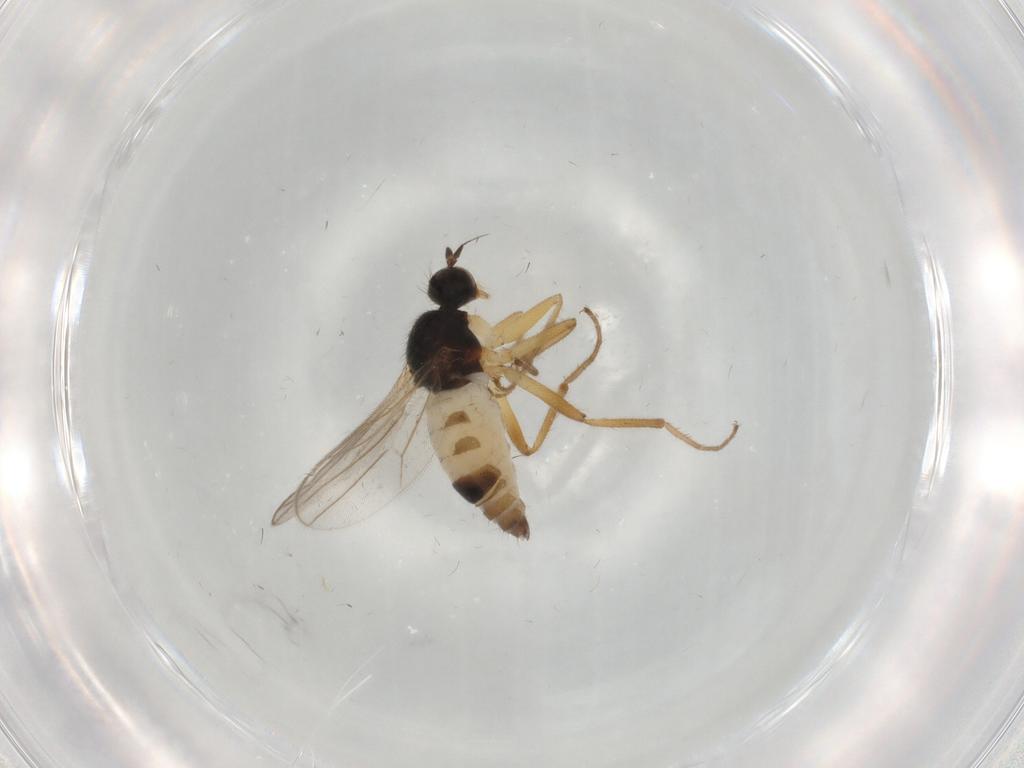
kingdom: Animalia
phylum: Arthropoda
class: Insecta
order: Diptera
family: Hybotidae
